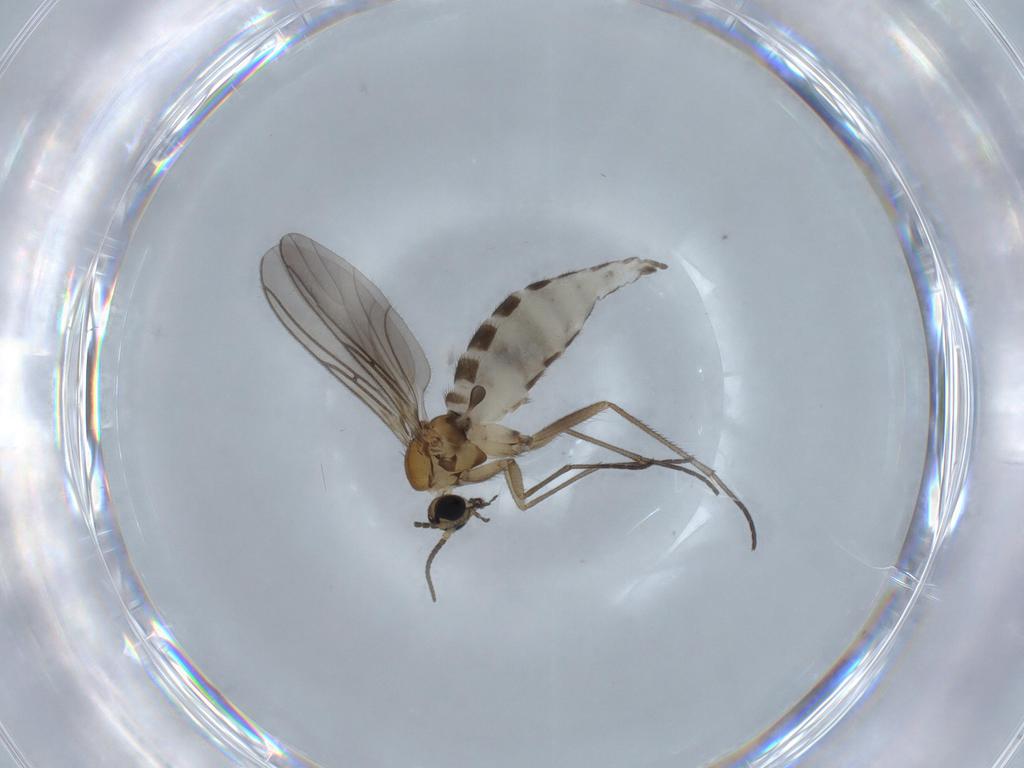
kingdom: Animalia
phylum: Arthropoda
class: Insecta
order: Diptera
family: Sciaridae
